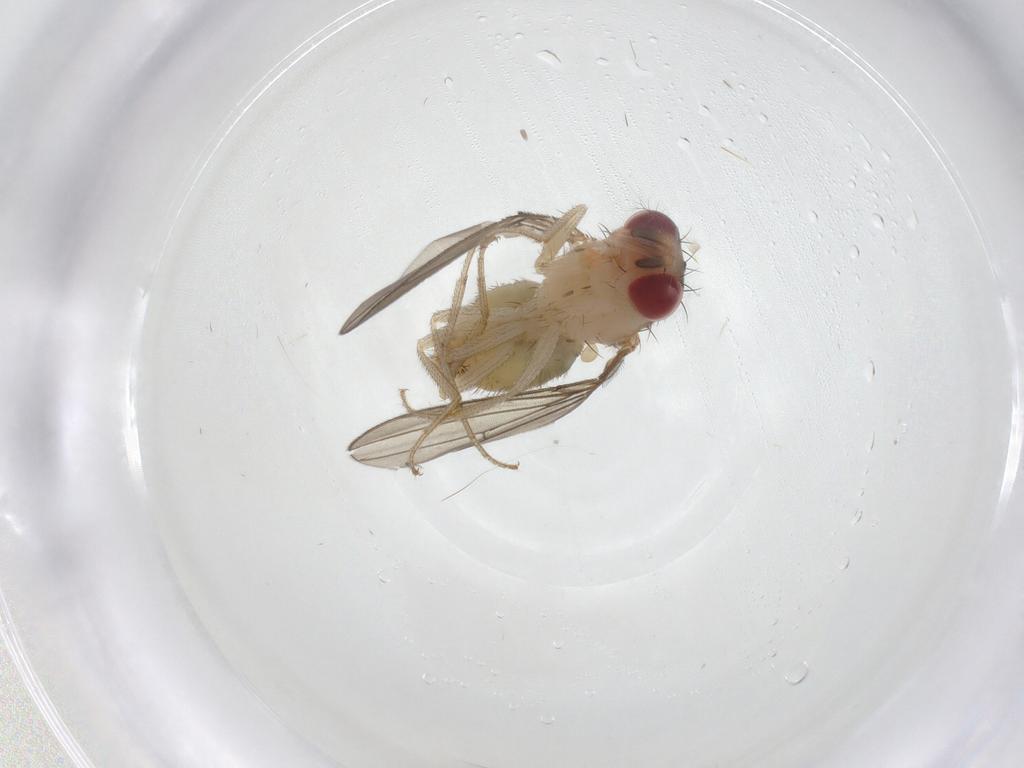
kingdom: Animalia
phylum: Arthropoda
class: Insecta
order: Diptera
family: Drosophilidae
